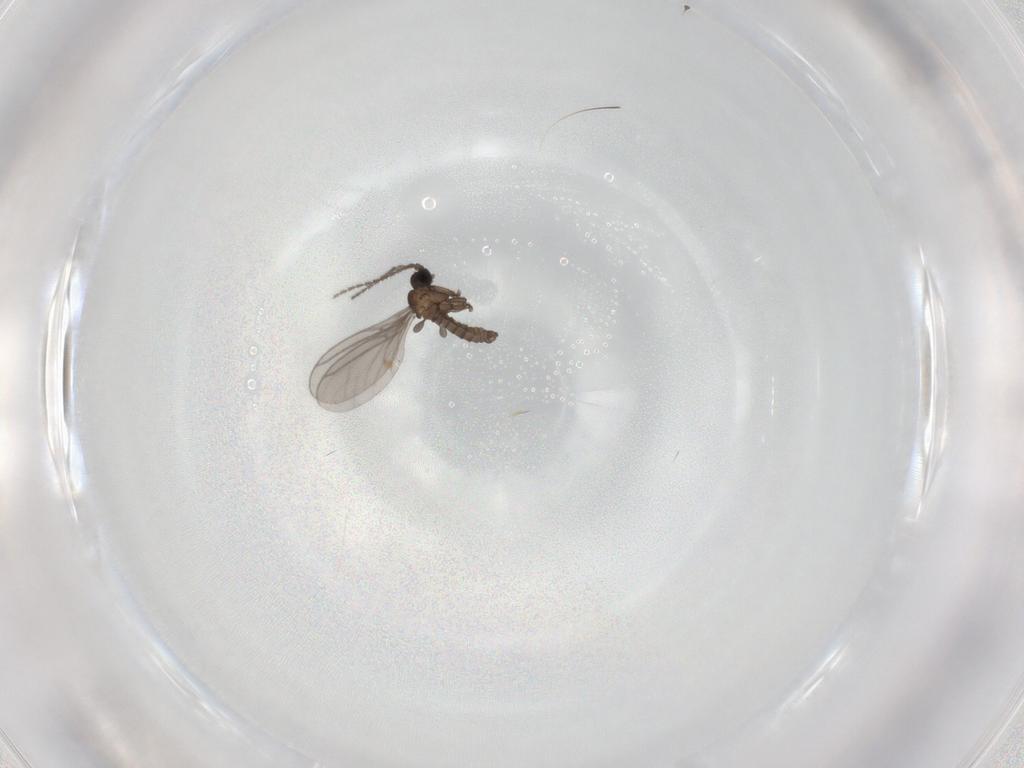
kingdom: Animalia
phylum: Arthropoda
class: Insecta
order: Diptera
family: Sciaridae
